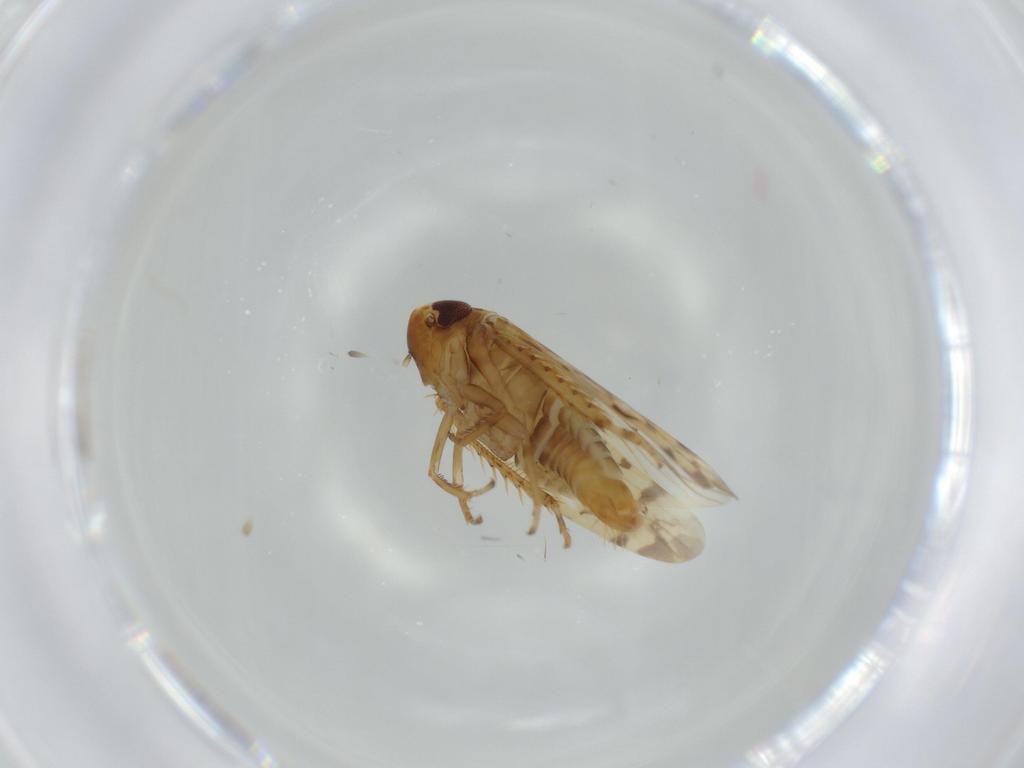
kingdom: Animalia
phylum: Arthropoda
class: Insecta
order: Hemiptera
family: Cicadellidae
